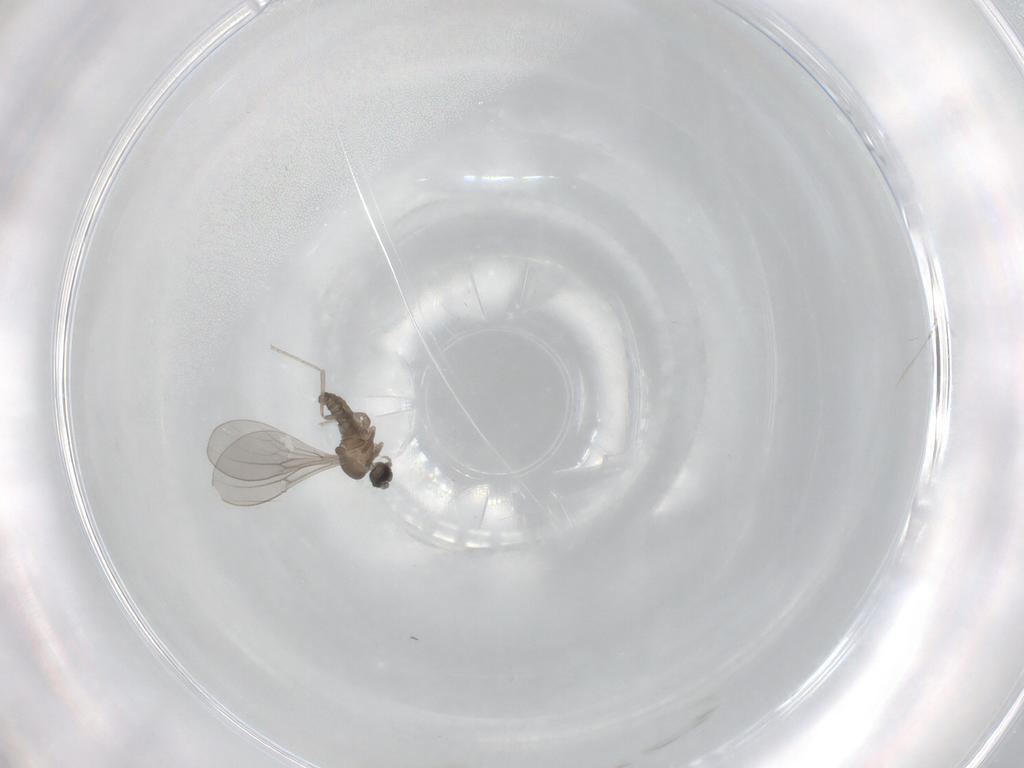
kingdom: Animalia
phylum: Arthropoda
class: Insecta
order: Diptera
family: Cecidomyiidae
